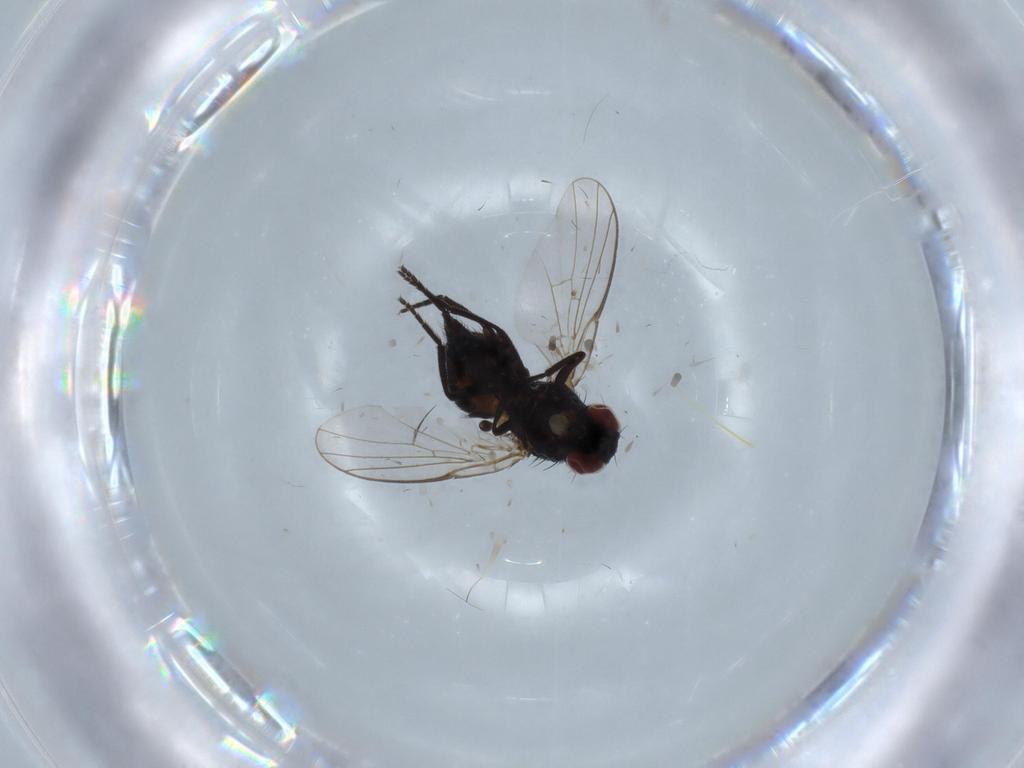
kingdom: Animalia
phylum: Arthropoda
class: Insecta
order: Diptera
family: Agromyzidae
